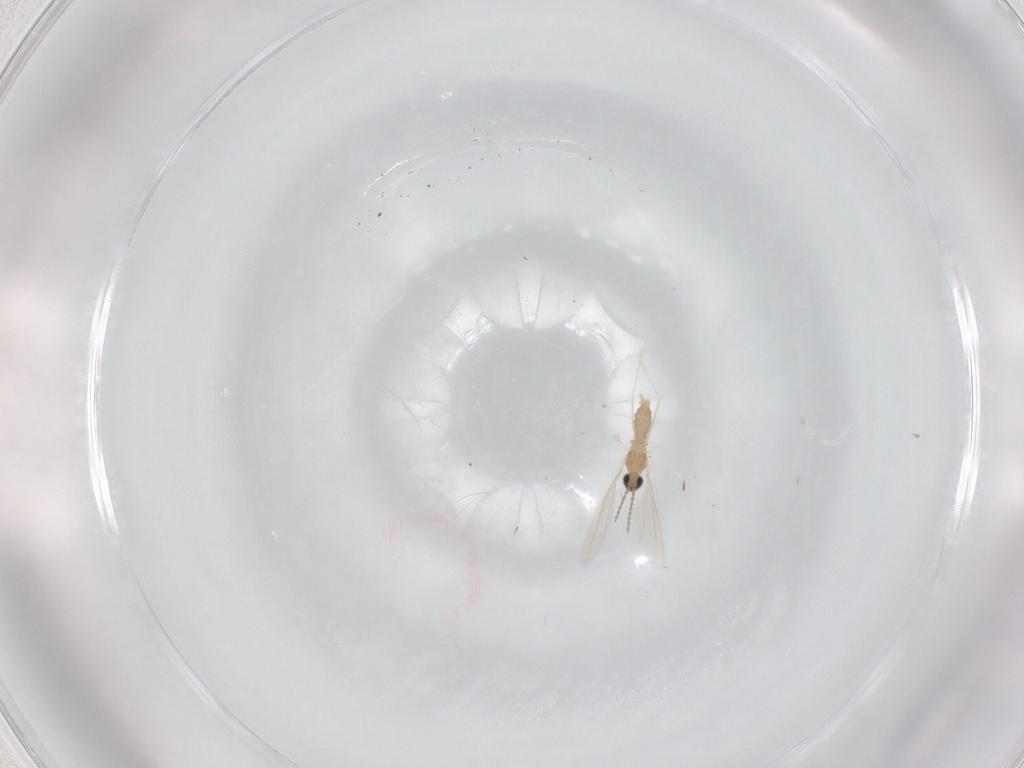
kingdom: Animalia
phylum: Arthropoda
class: Insecta
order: Diptera
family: Cecidomyiidae
